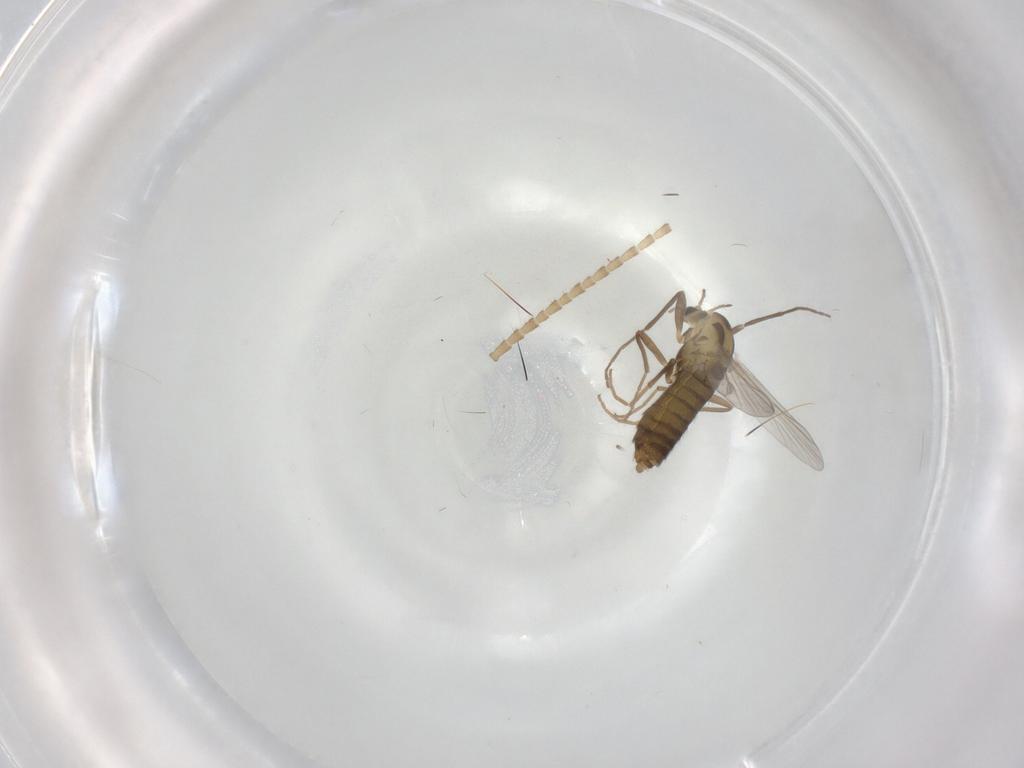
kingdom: Animalia
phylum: Arthropoda
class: Insecta
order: Diptera
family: Chironomidae
